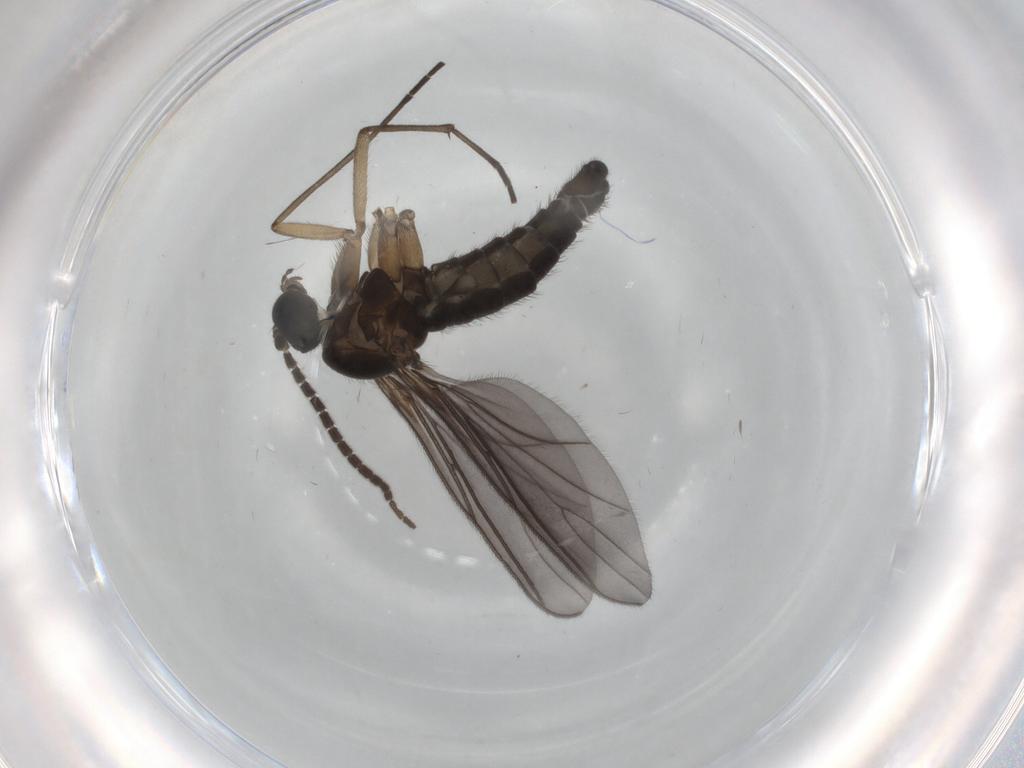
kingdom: Animalia
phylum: Arthropoda
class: Insecta
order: Diptera
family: Sciaridae
